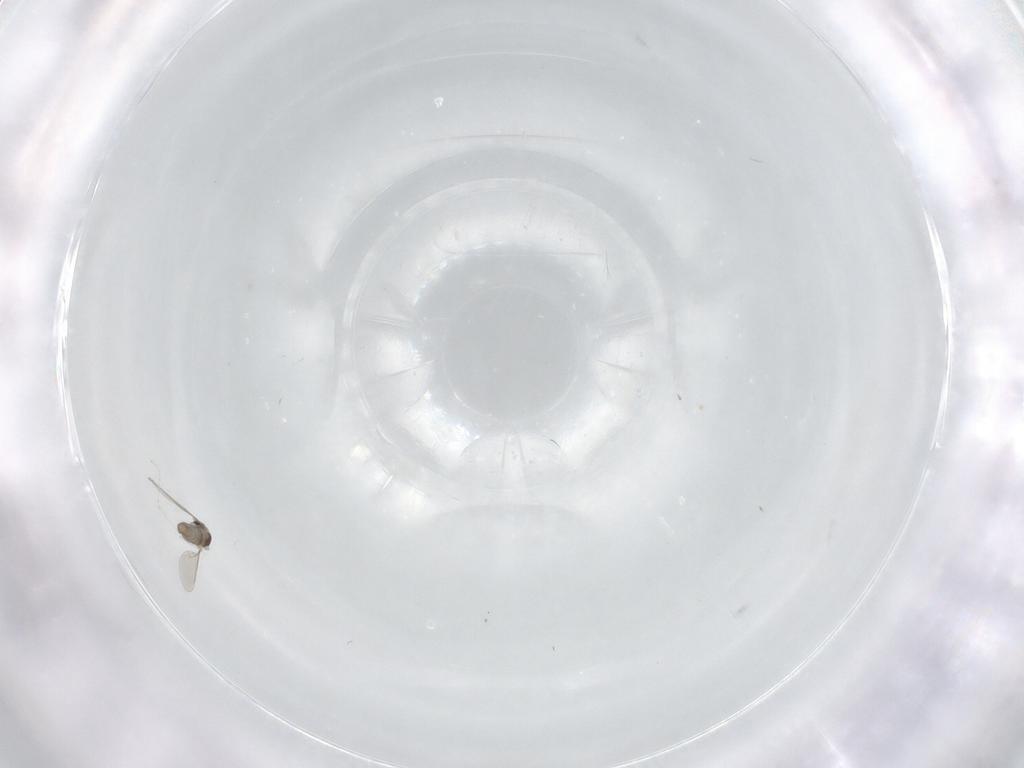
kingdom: Animalia
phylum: Arthropoda
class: Insecta
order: Diptera
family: Cecidomyiidae
